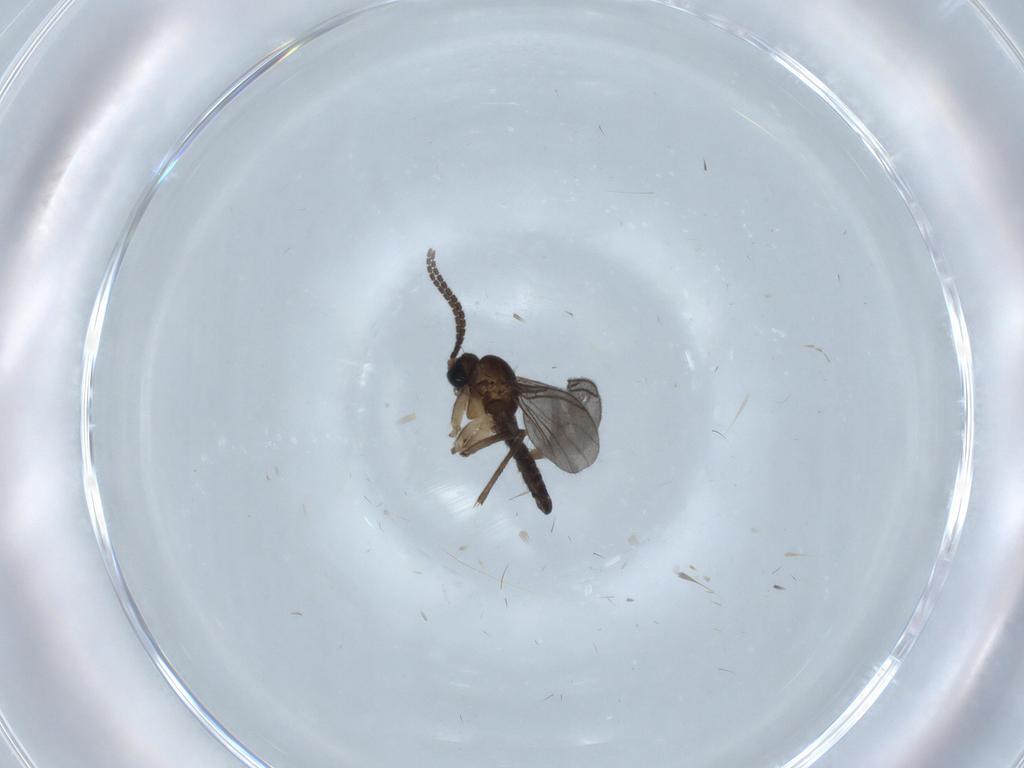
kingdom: Animalia
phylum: Arthropoda
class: Insecta
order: Diptera
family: Sciaridae
